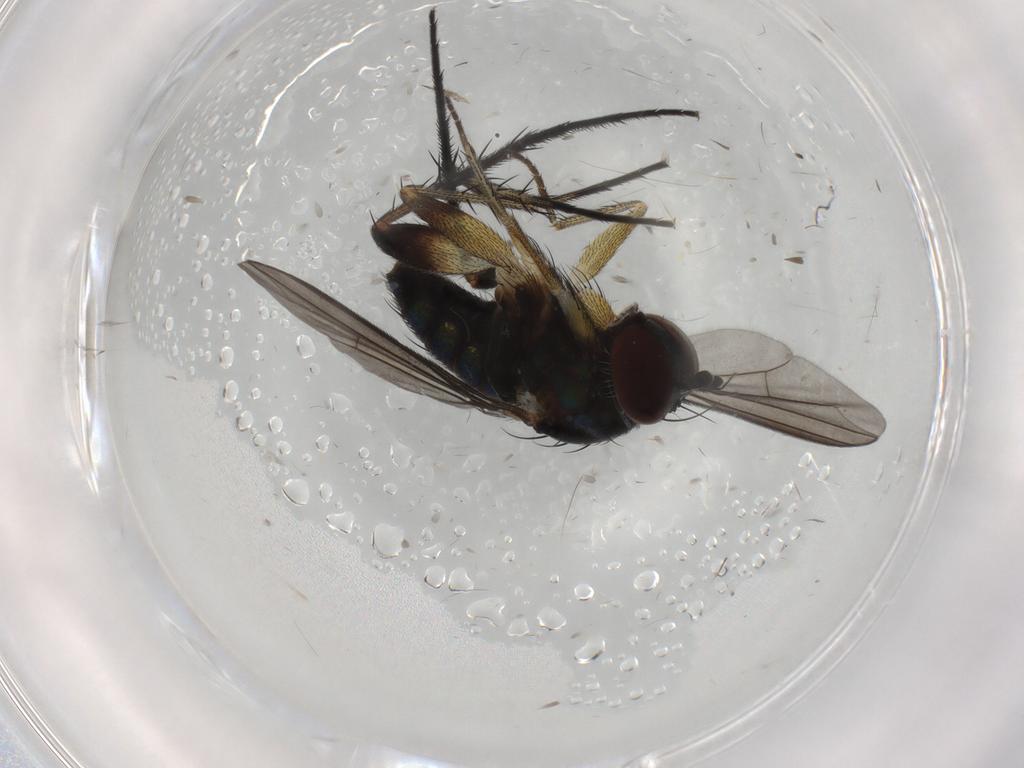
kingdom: Animalia
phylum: Arthropoda
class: Insecta
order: Diptera
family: Dolichopodidae
